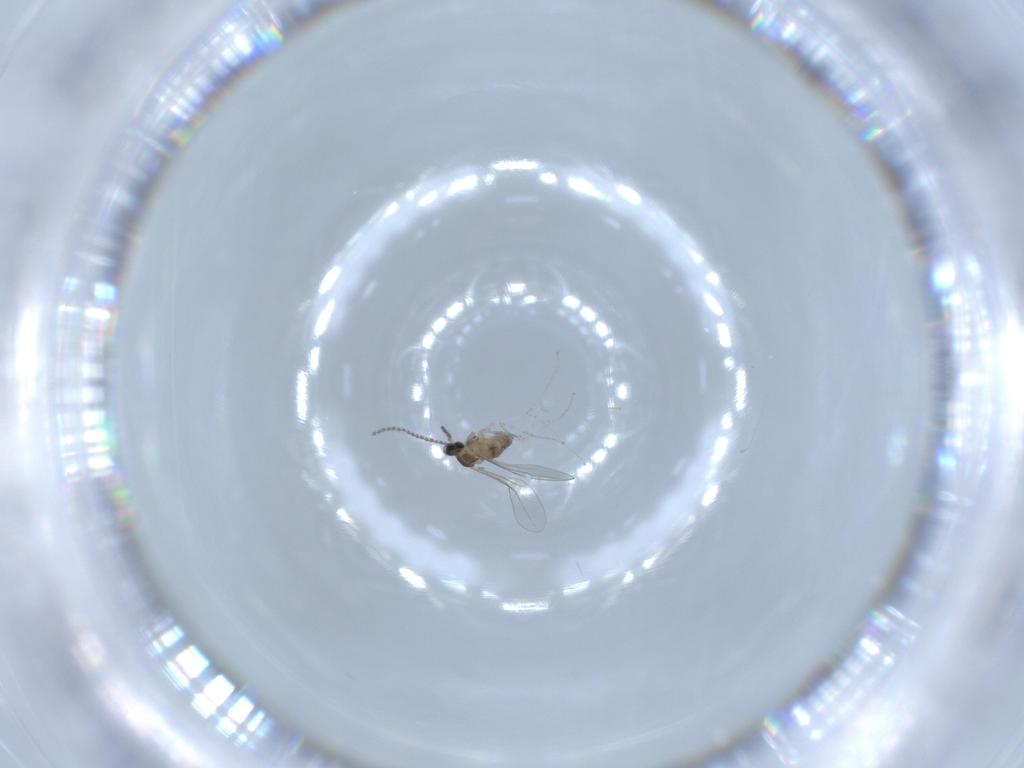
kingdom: Animalia
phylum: Arthropoda
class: Insecta
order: Diptera
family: Cecidomyiidae
